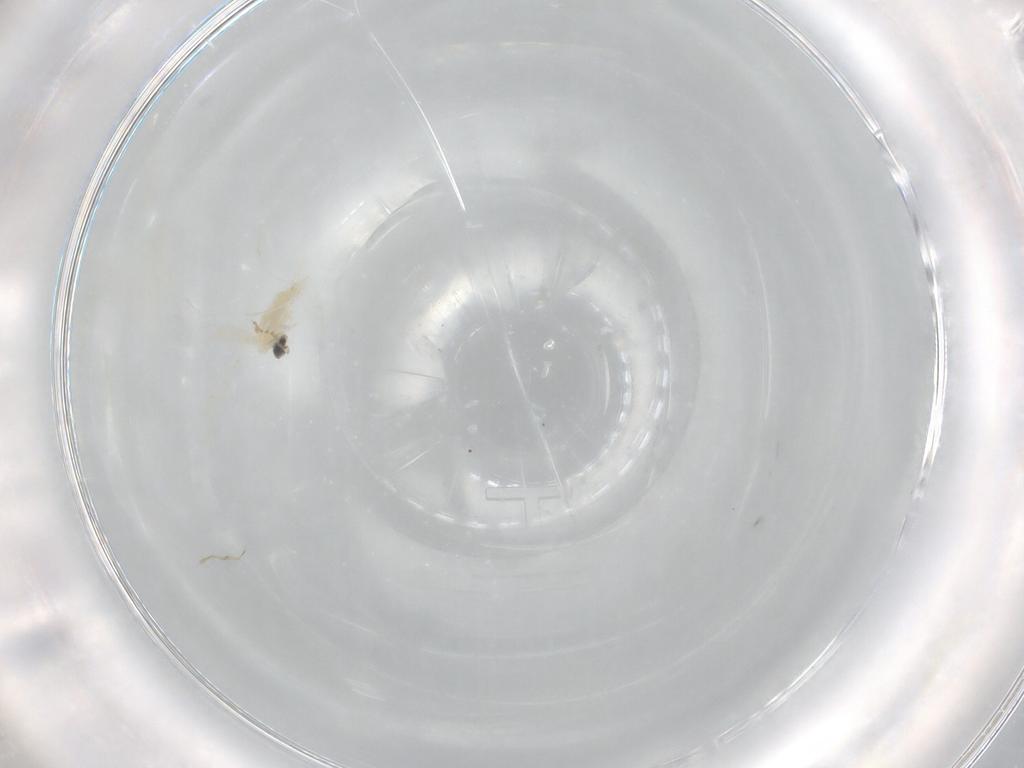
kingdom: Animalia
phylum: Arthropoda
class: Insecta
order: Diptera
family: Cecidomyiidae
